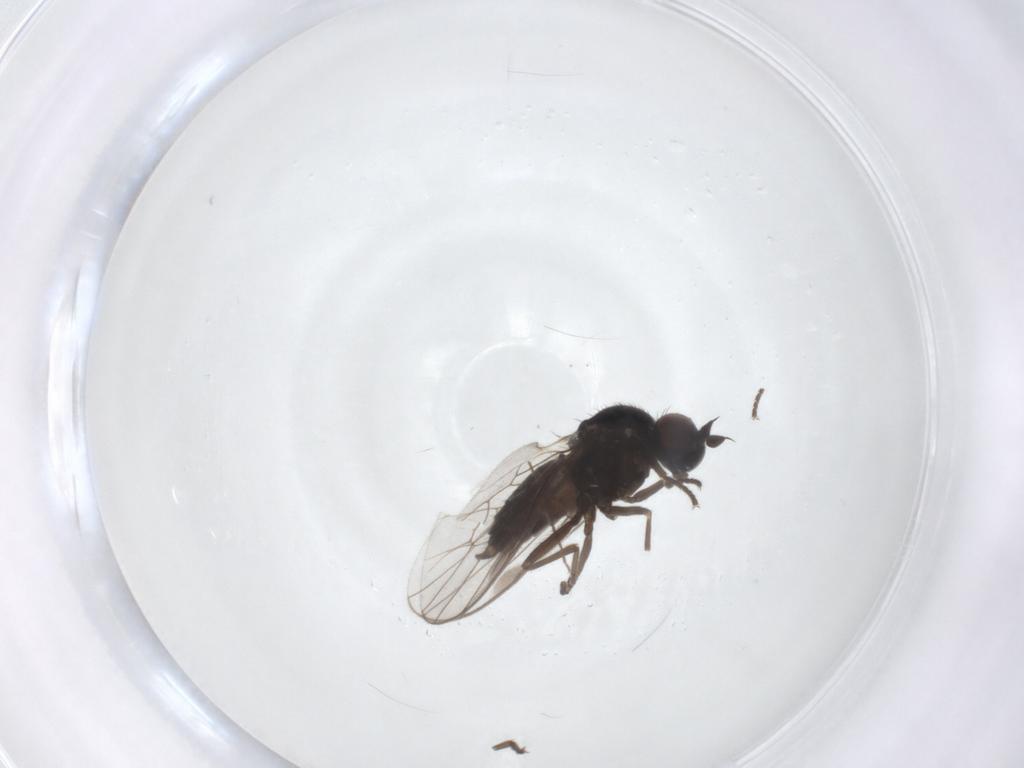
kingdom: Animalia
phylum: Arthropoda
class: Insecta
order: Diptera
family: Hybotidae
